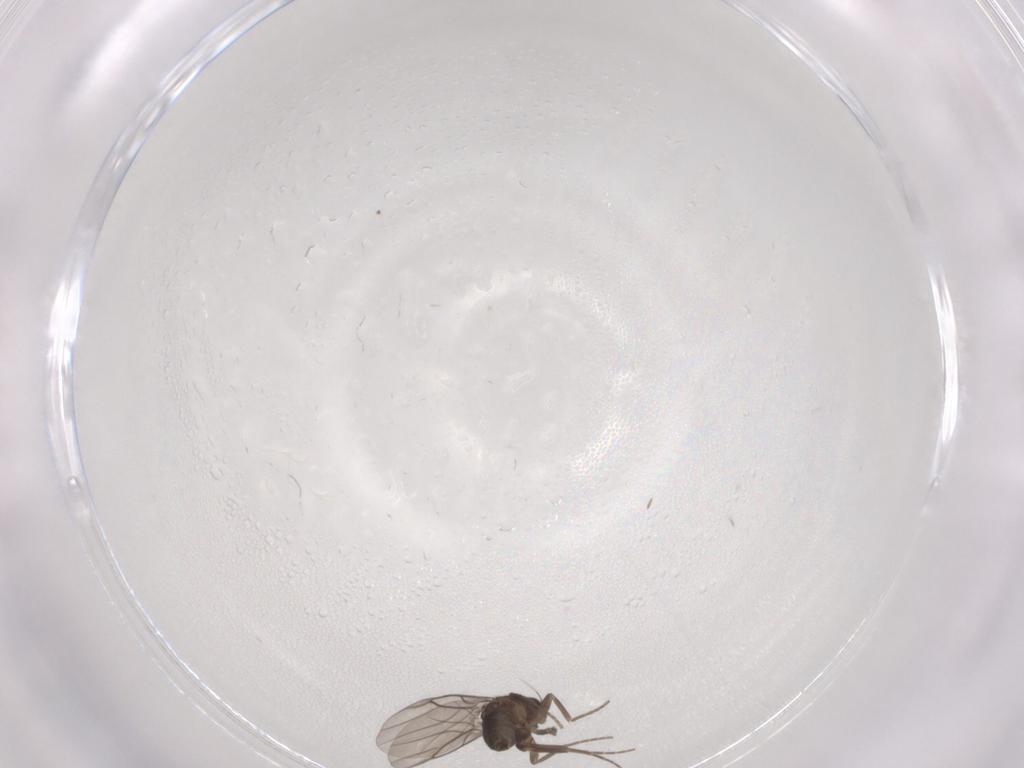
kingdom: Animalia
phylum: Arthropoda
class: Insecta
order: Diptera
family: Phoridae
